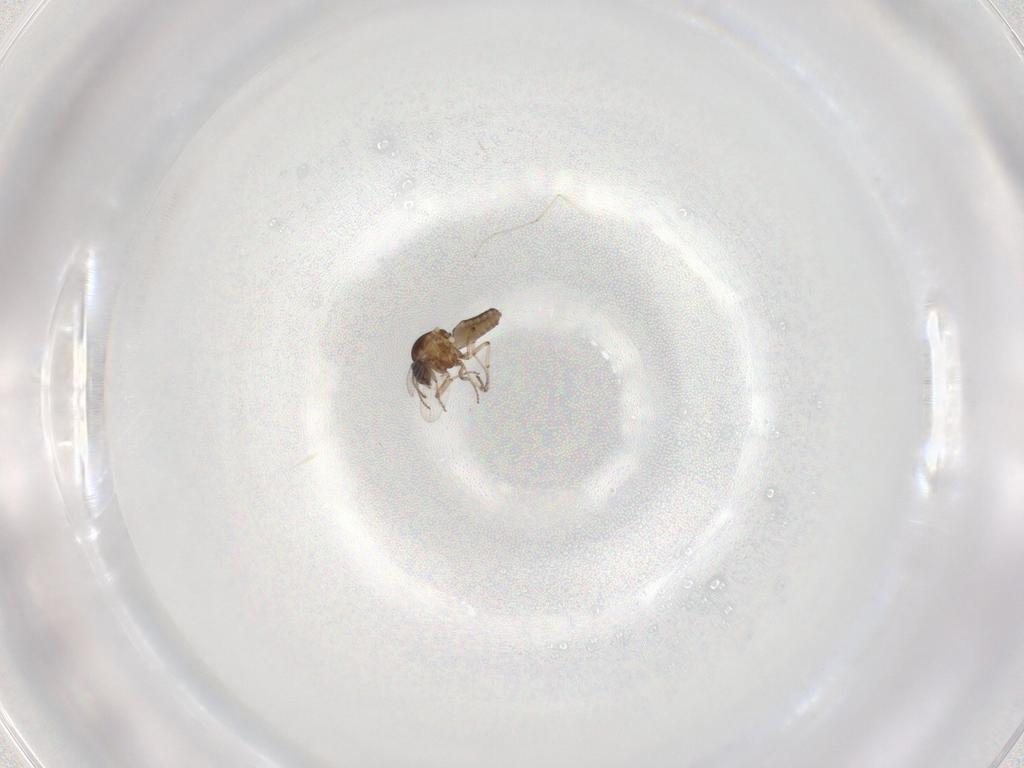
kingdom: Animalia
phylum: Arthropoda
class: Insecta
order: Diptera
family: Ceratopogonidae
